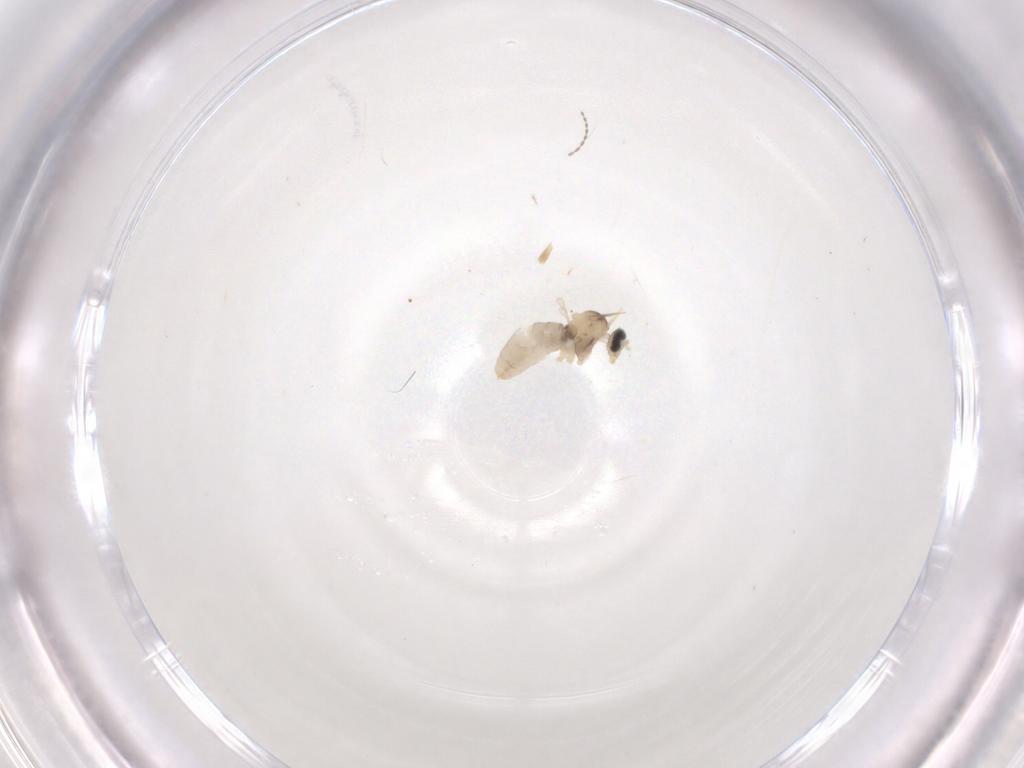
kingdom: Animalia
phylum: Arthropoda
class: Insecta
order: Diptera
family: Cecidomyiidae
